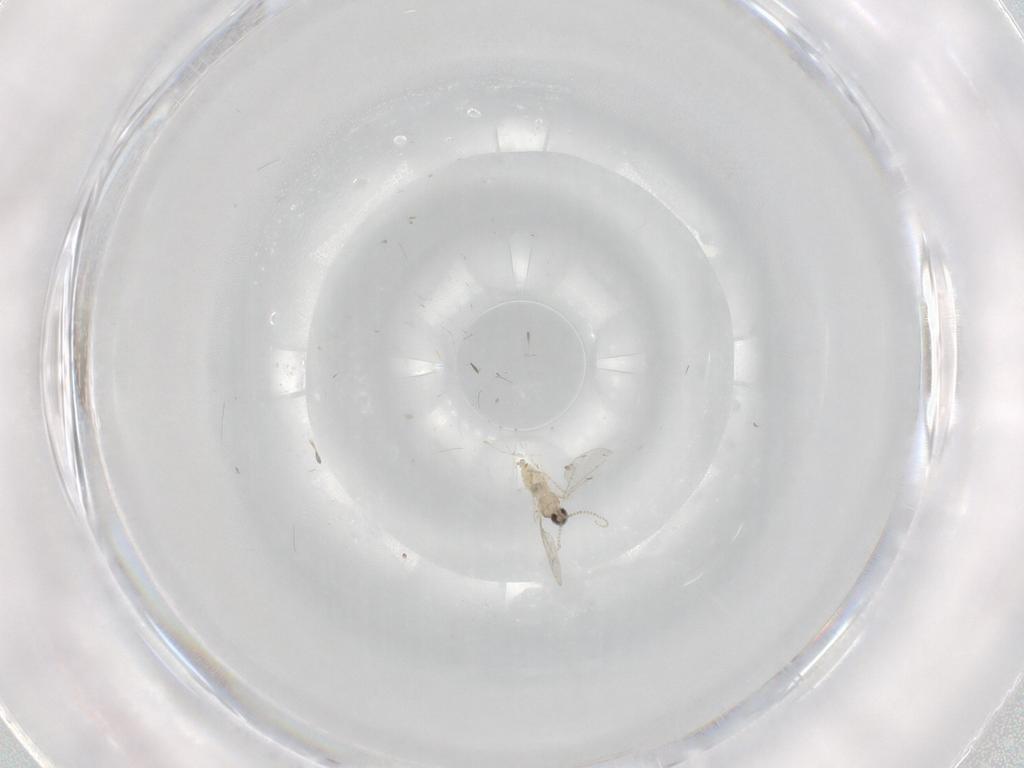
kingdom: Animalia
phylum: Arthropoda
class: Insecta
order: Diptera
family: Cecidomyiidae
